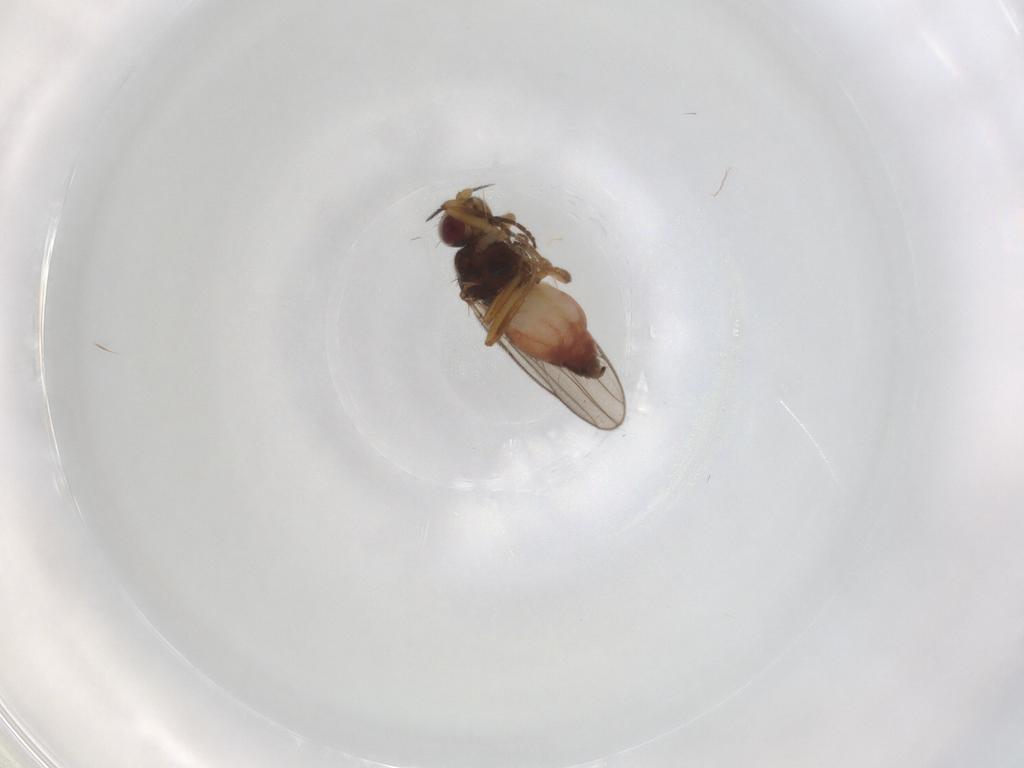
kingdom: Animalia
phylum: Arthropoda
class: Insecta
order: Diptera
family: Chloropidae
